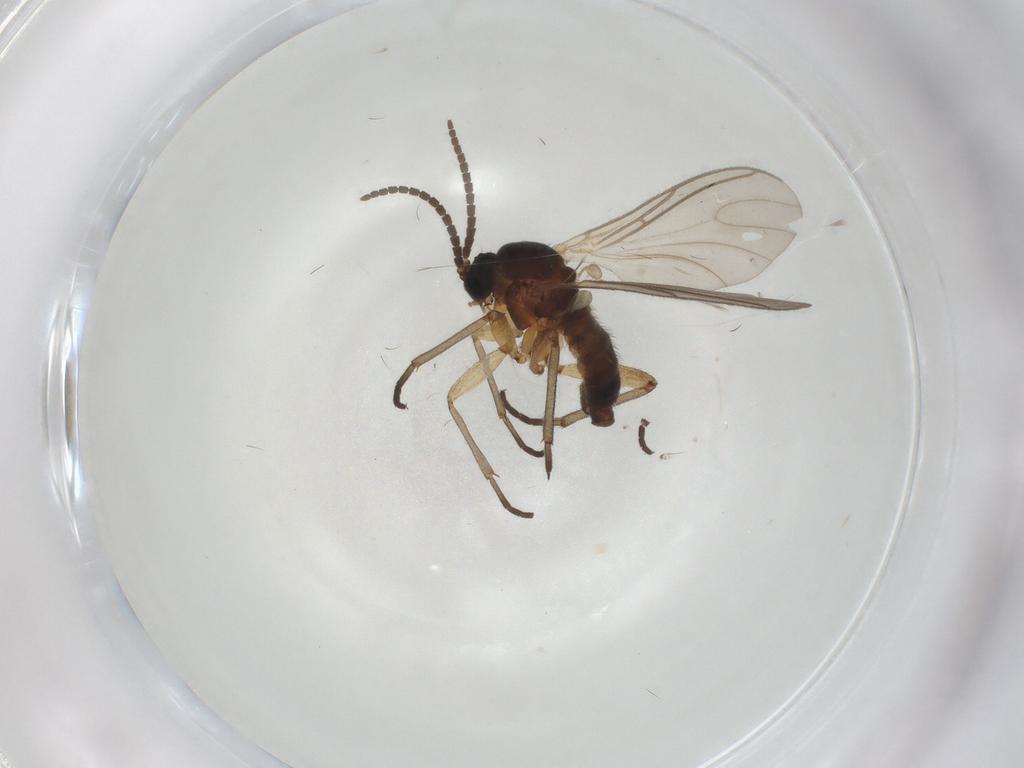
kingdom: Animalia
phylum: Arthropoda
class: Insecta
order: Diptera
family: Sciaridae
